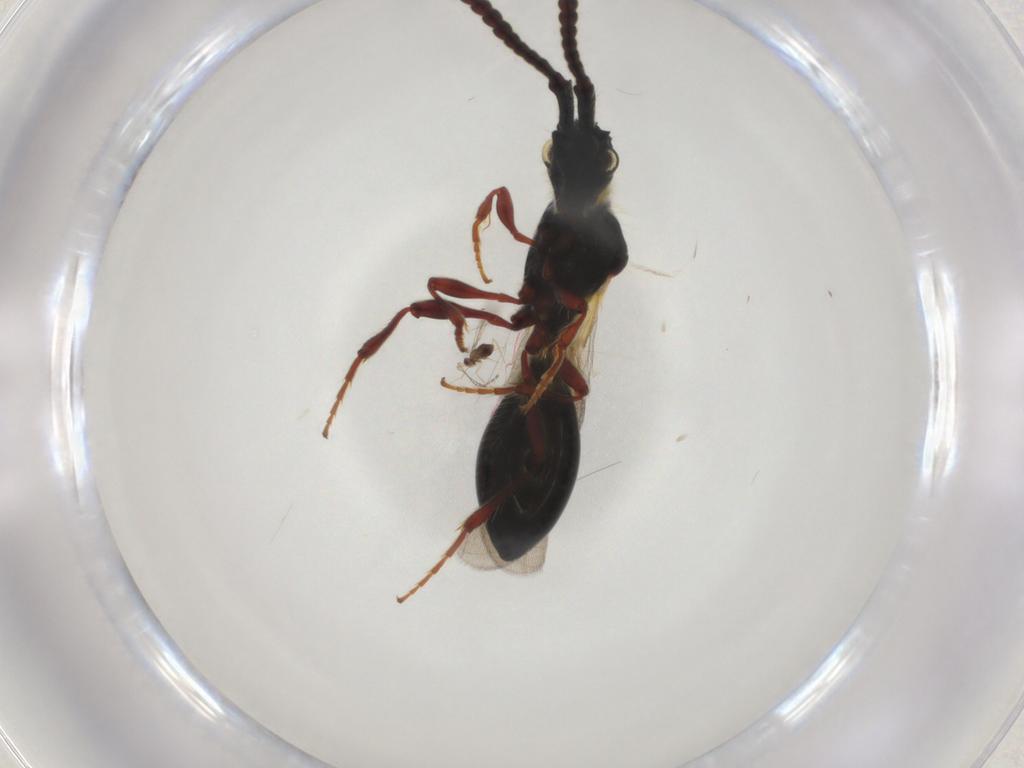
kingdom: Animalia
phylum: Arthropoda
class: Insecta
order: Hymenoptera
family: Diapriidae
